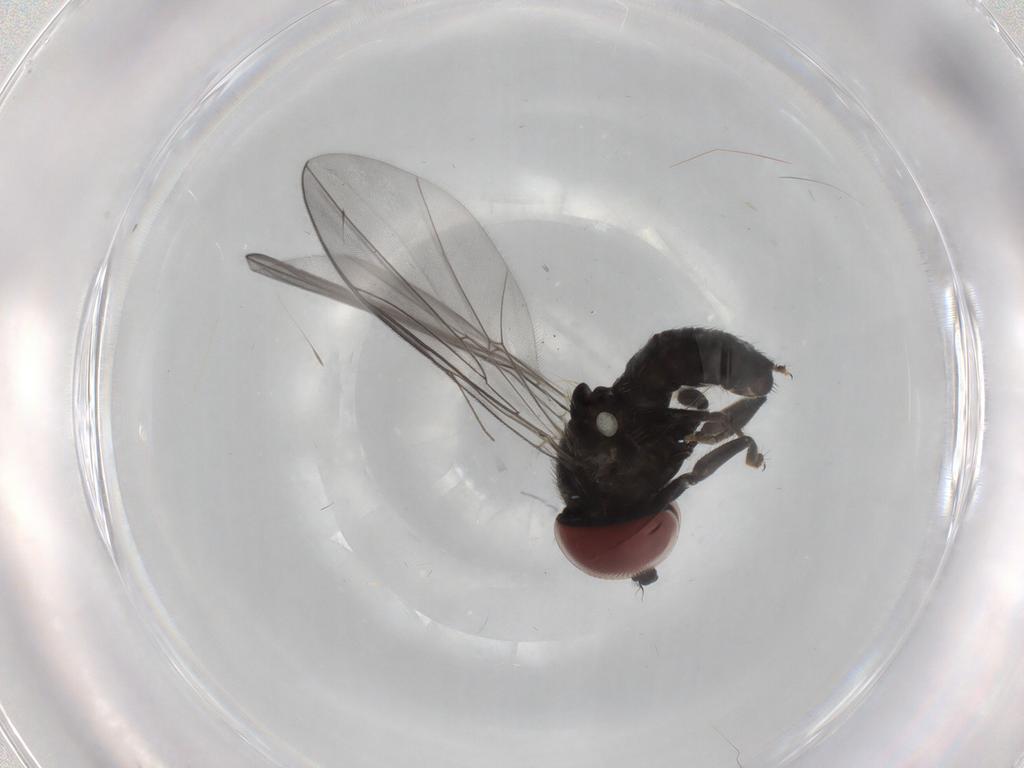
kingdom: Animalia
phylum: Arthropoda
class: Insecta
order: Diptera
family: Pipunculidae
